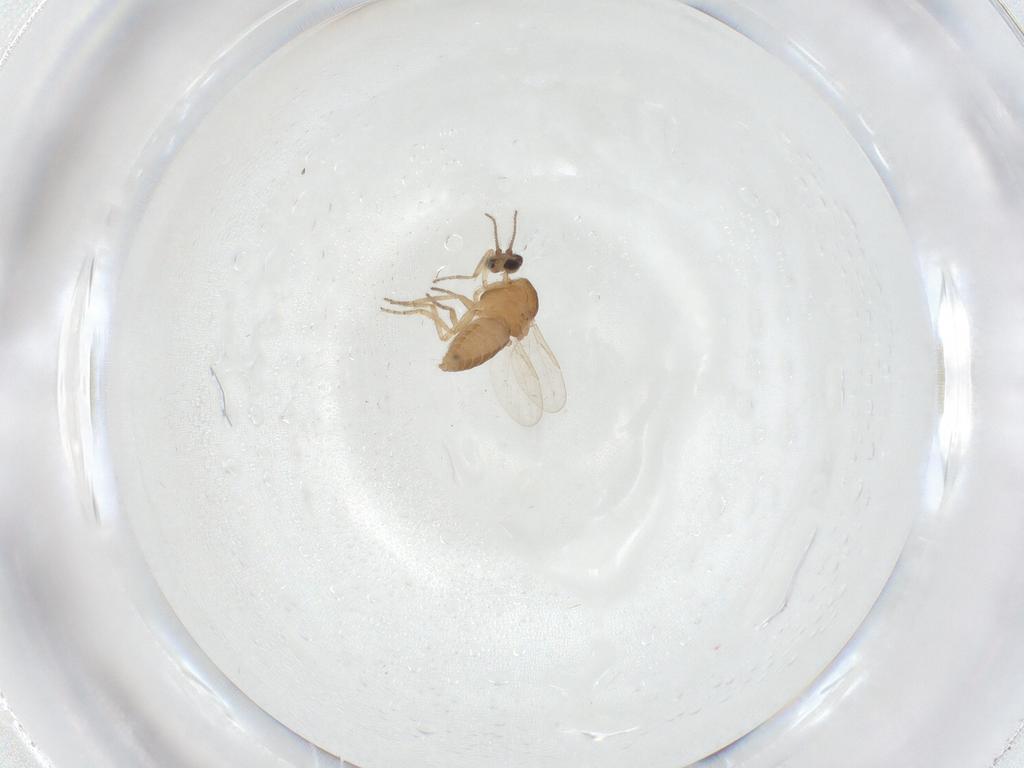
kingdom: Animalia
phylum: Arthropoda
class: Insecta
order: Diptera
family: Ceratopogonidae
